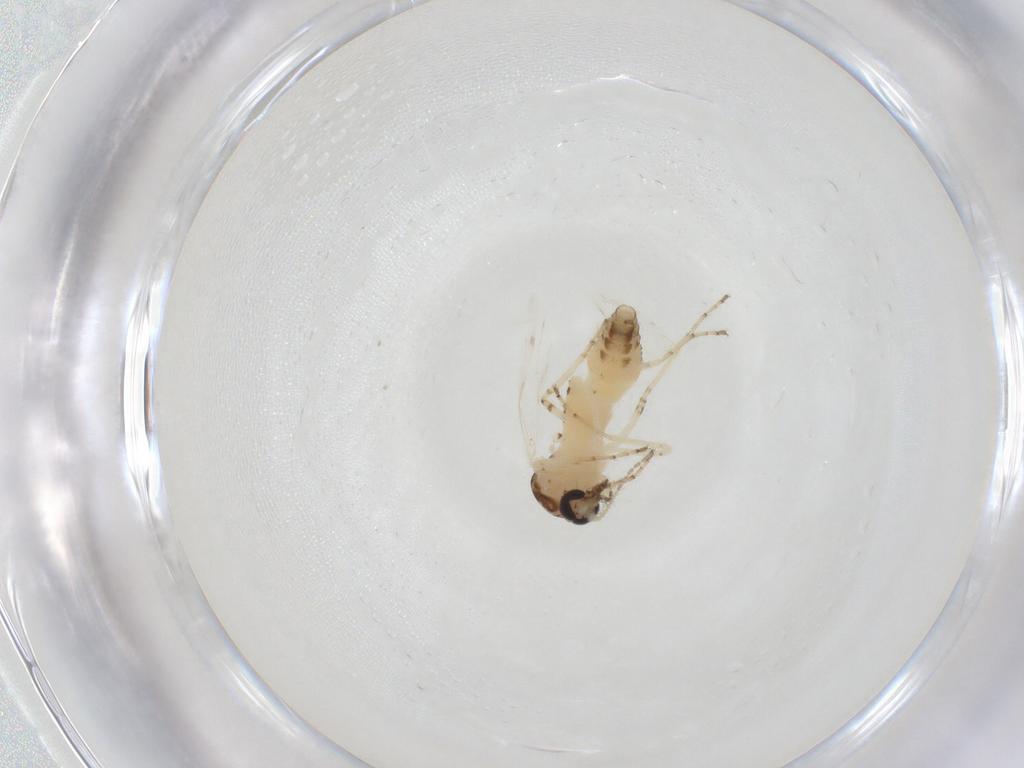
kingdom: Animalia
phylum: Arthropoda
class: Insecta
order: Diptera
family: Ceratopogonidae
